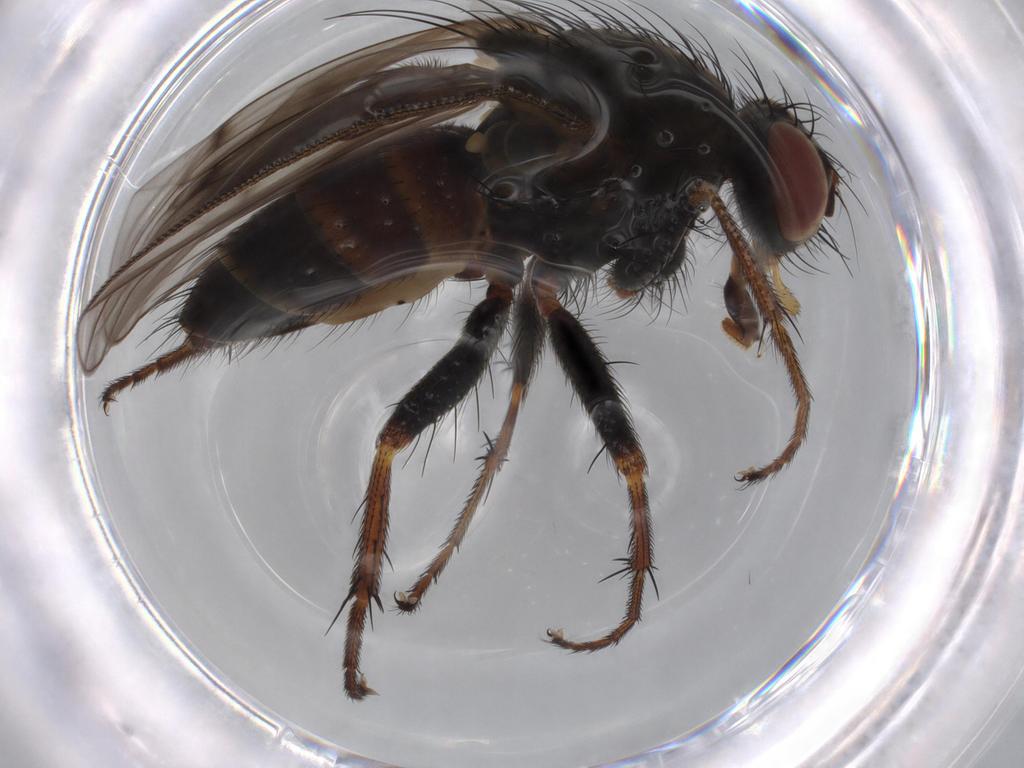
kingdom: Animalia
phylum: Arthropoda
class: Insecta
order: Diptera
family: Muscidae
